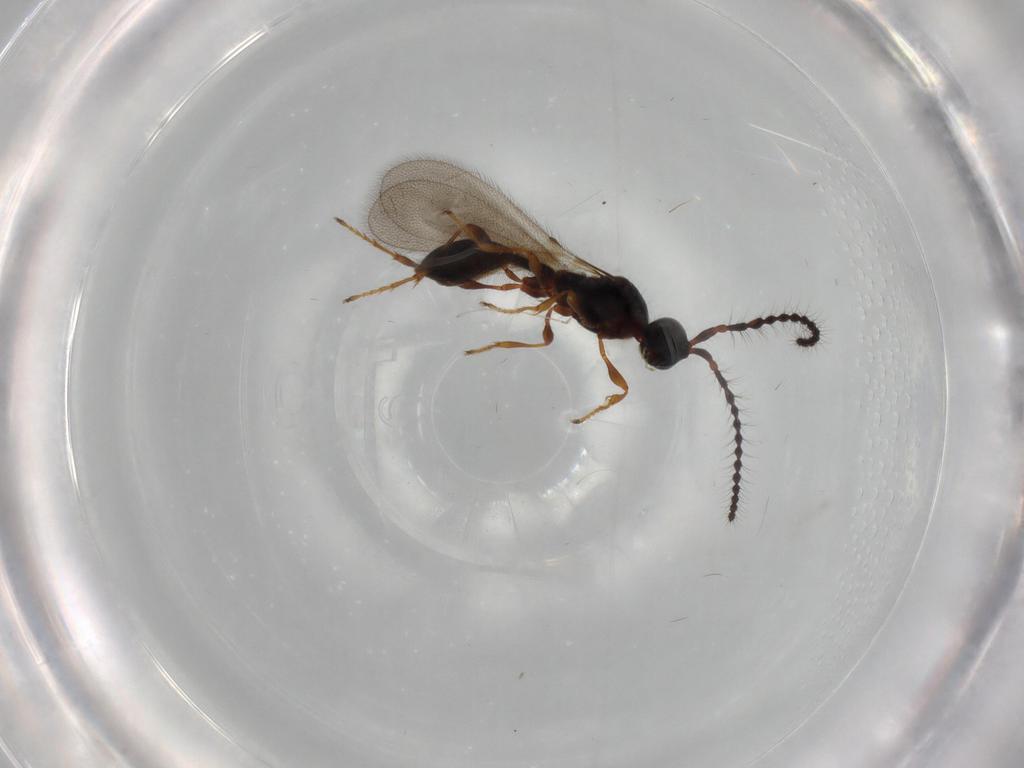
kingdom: Animalia
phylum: Arthropoda
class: Insecta
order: Hymenoptera
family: Diapriidae
